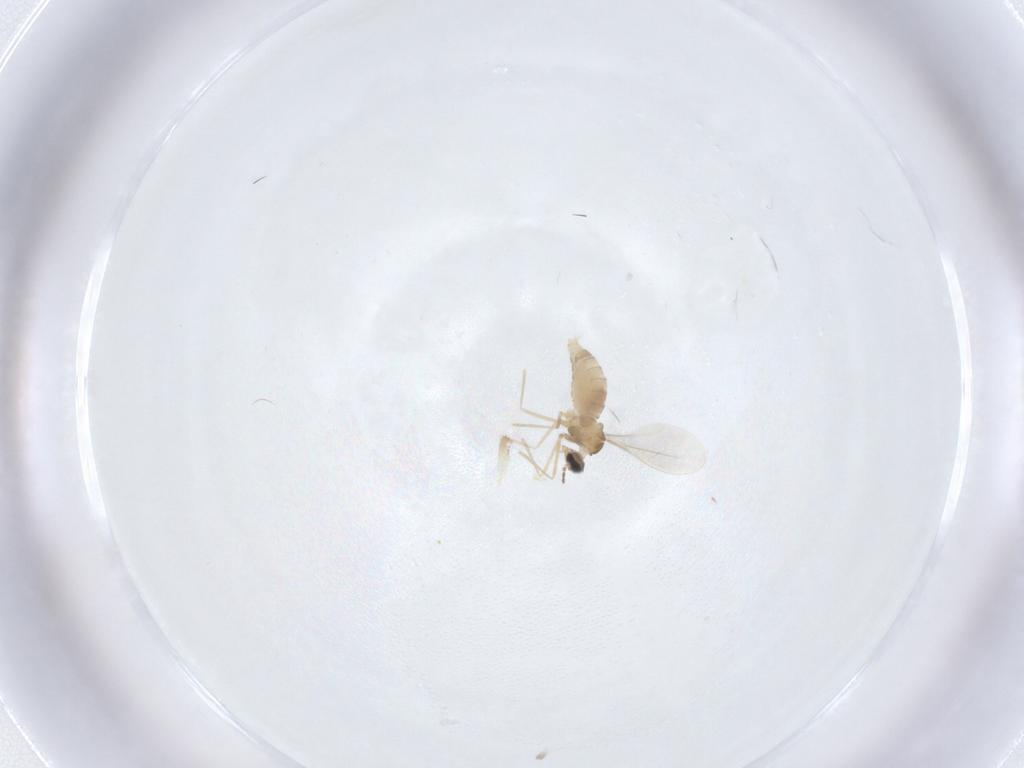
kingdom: Animalia
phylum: Arthropoda
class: Insecta
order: Diptera
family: Cecidomyiidae
